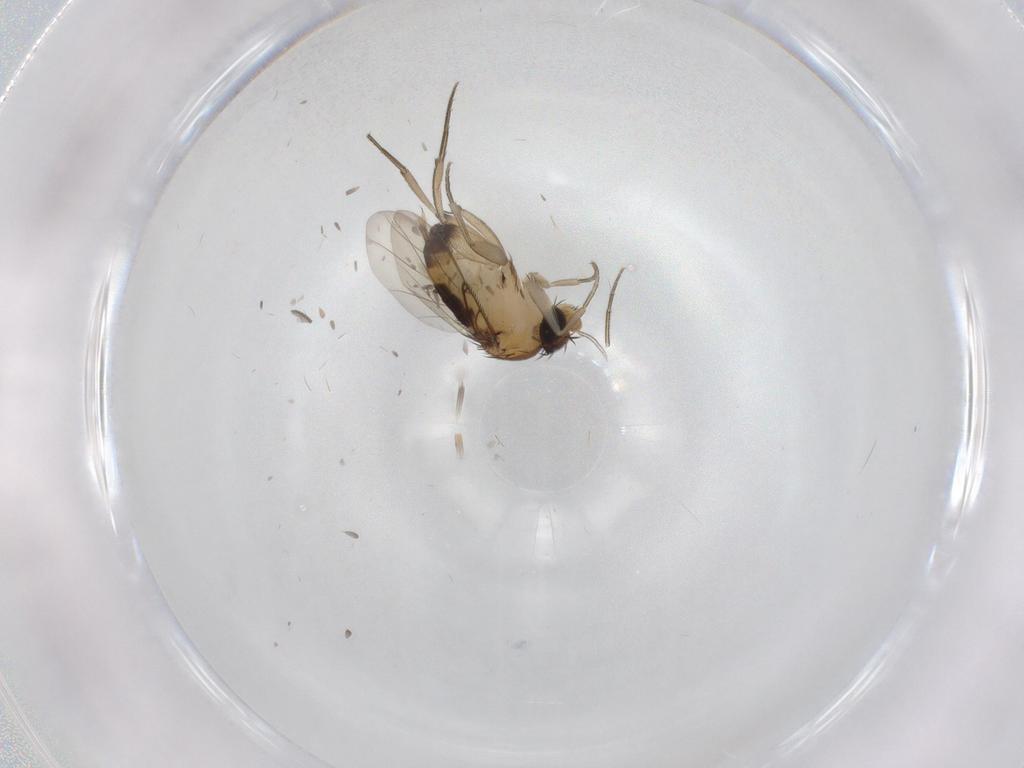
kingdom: Animalia
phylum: Arthropoda
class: Insecta
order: Diptera
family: Phoridae
